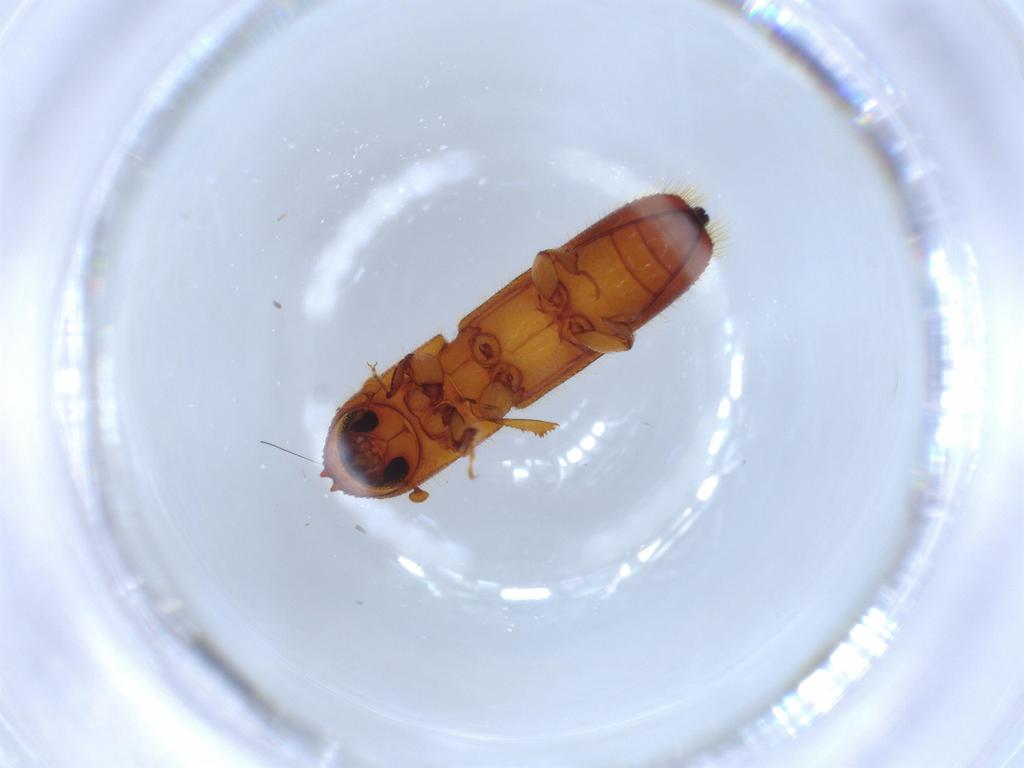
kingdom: Animalia
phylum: Arthropoda
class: Insecta
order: Coleoptera
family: Curculionidae
